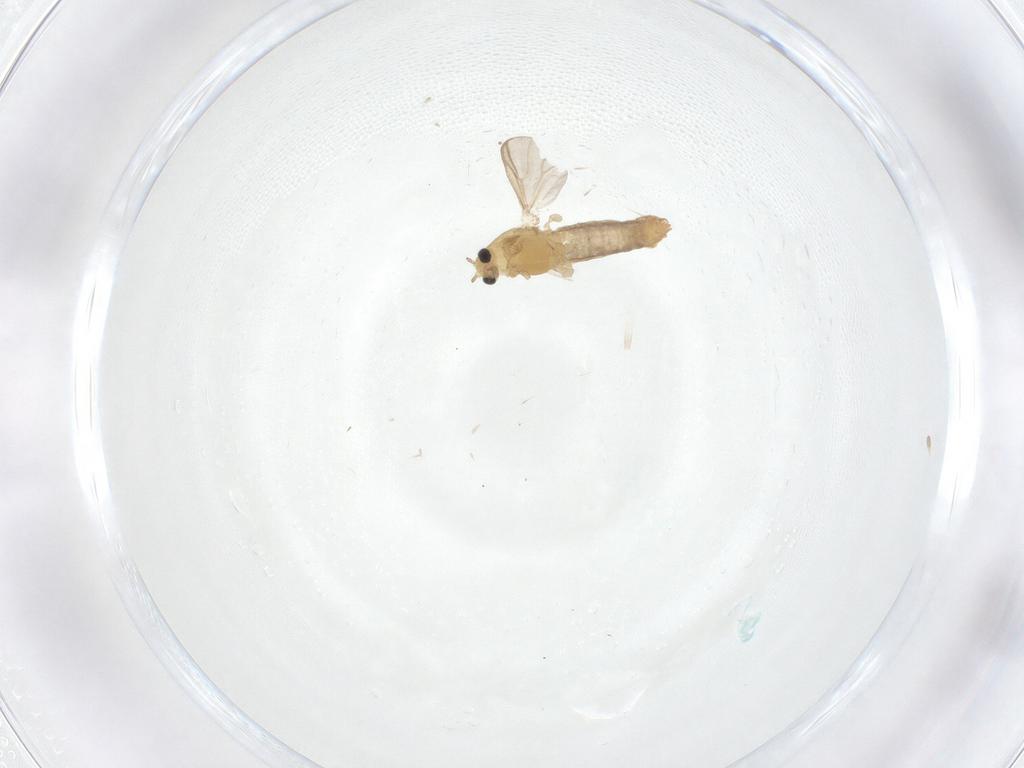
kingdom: Animalia
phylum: Arthropoda
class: Insecta
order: Diptera
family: Chironomidae
